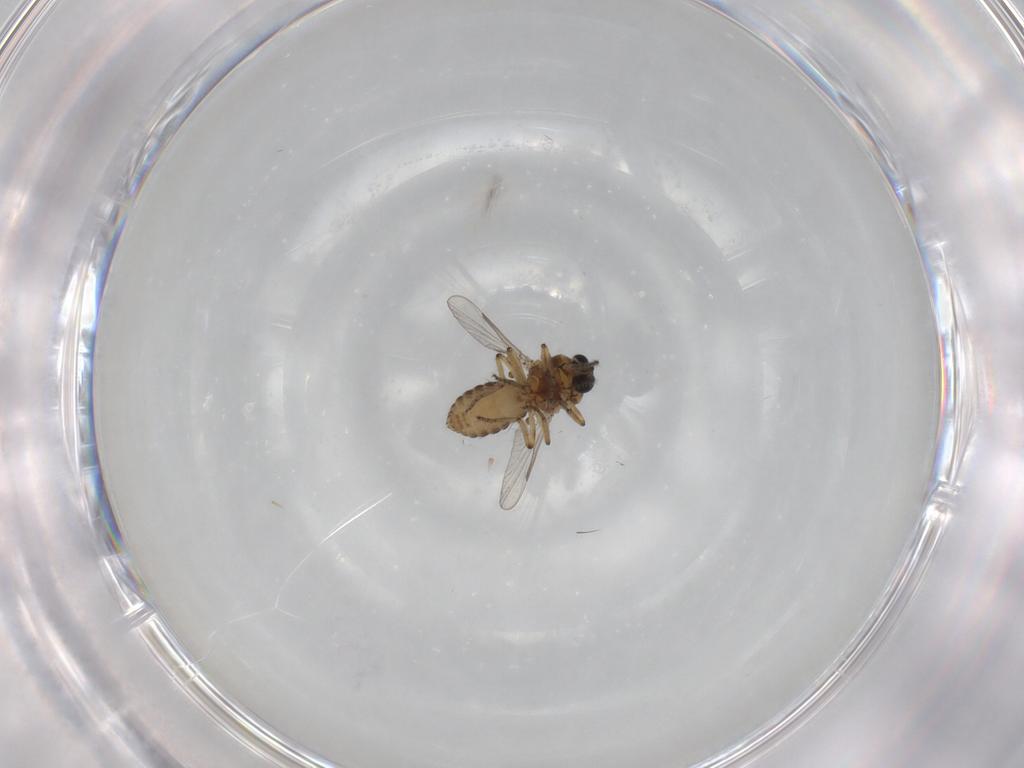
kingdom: Animalia
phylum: Arthropoda
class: Insecta
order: Diptera
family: Ceratopogonidae
